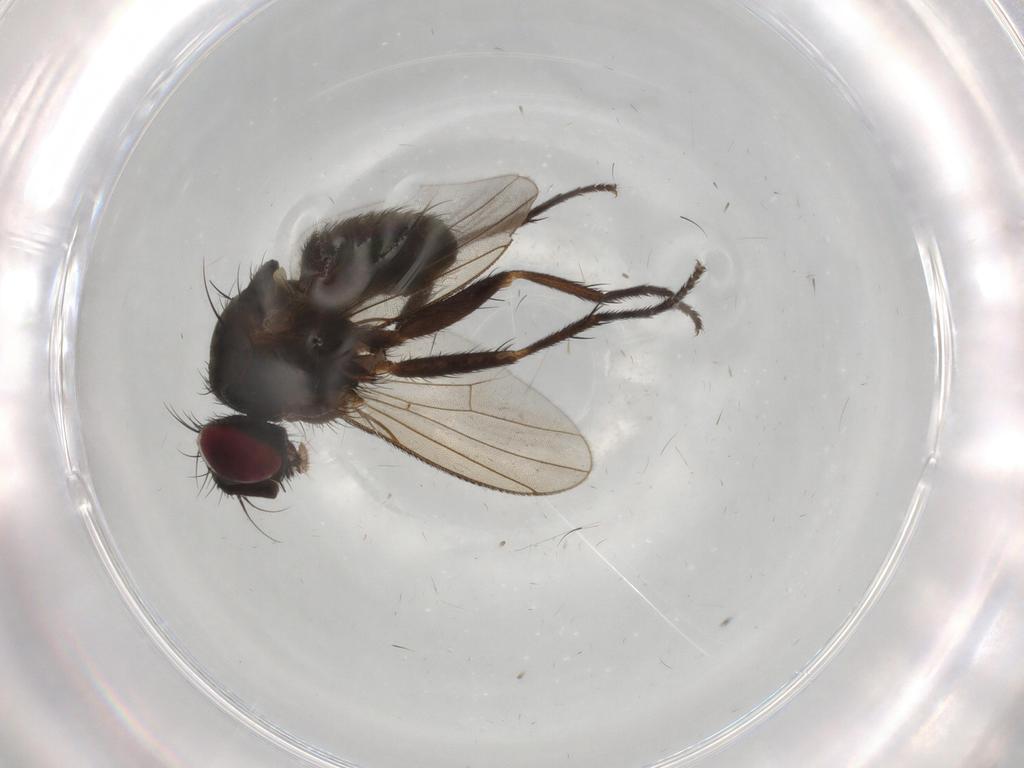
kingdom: Animalia
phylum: Arthropoda
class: Insecta
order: Diptera
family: Muscidae
